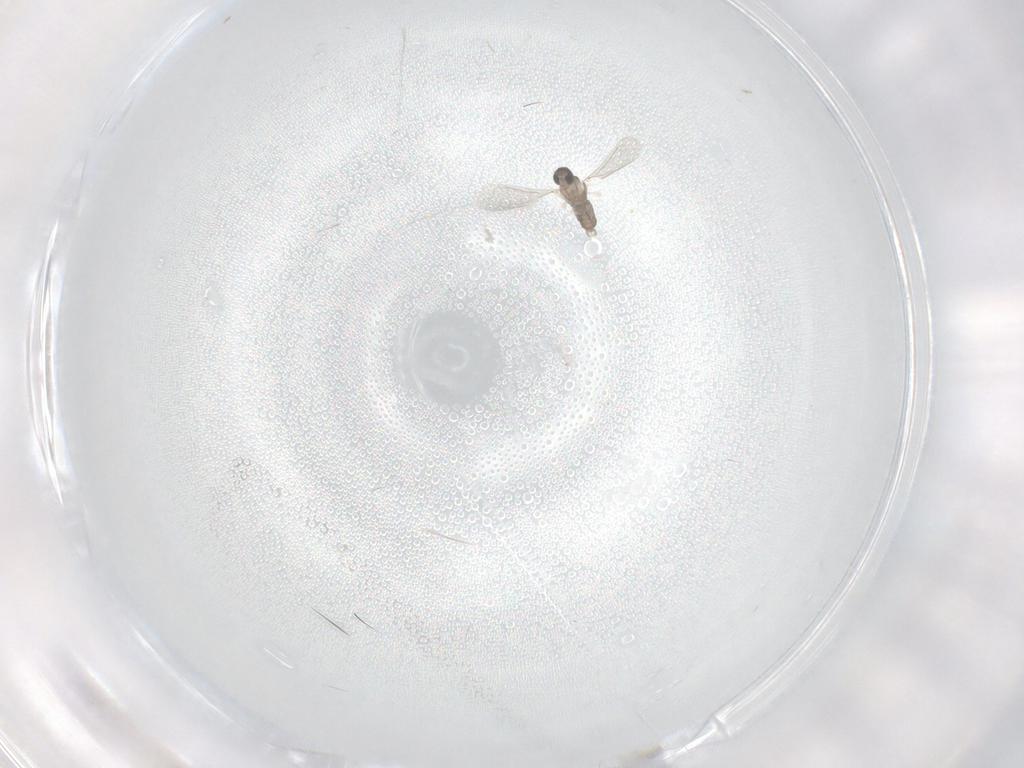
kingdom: Animalia
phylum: Arthropoda
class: Insecta
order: Diptera
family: Cecidomyiidae
